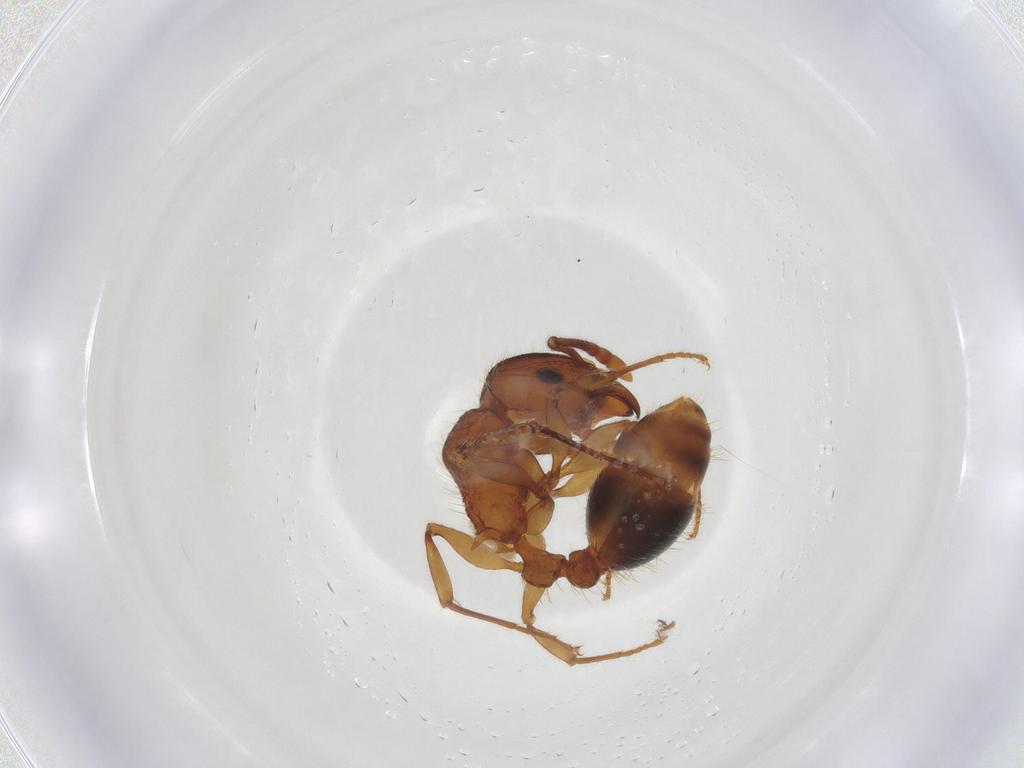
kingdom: Animalia
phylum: Arthropoda
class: Insecta
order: Hymenoptera
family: Formicidae
